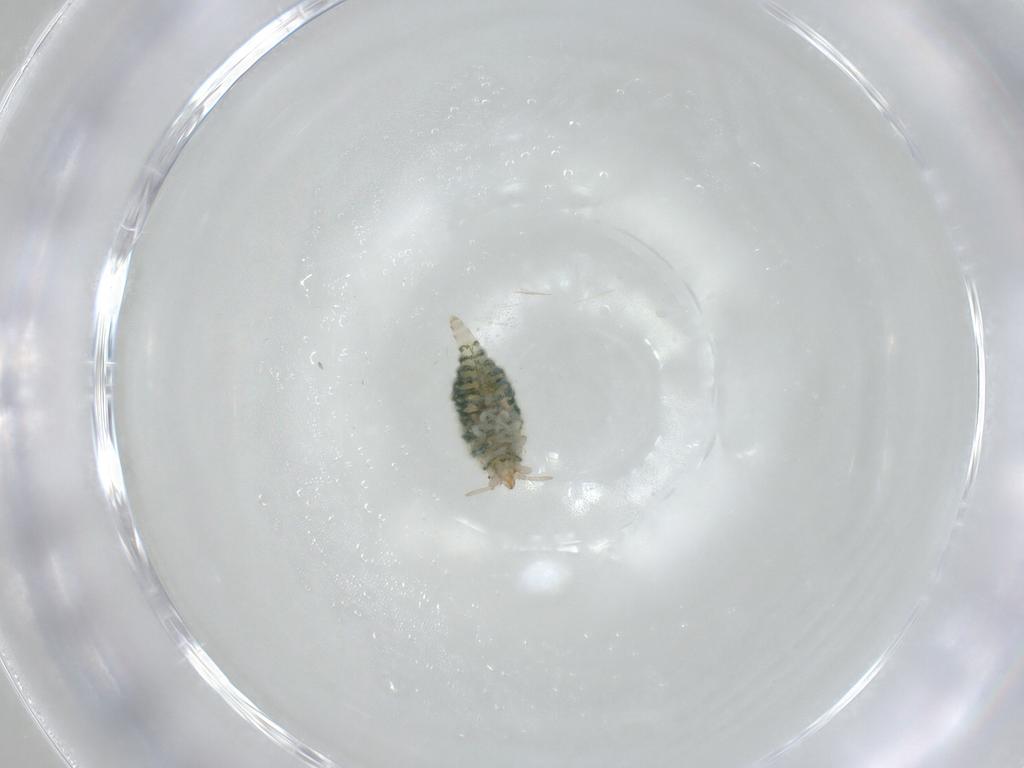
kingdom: Animalia
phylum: Arthropoda
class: Insecta
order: Neuroptera
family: Coniopterygidae
